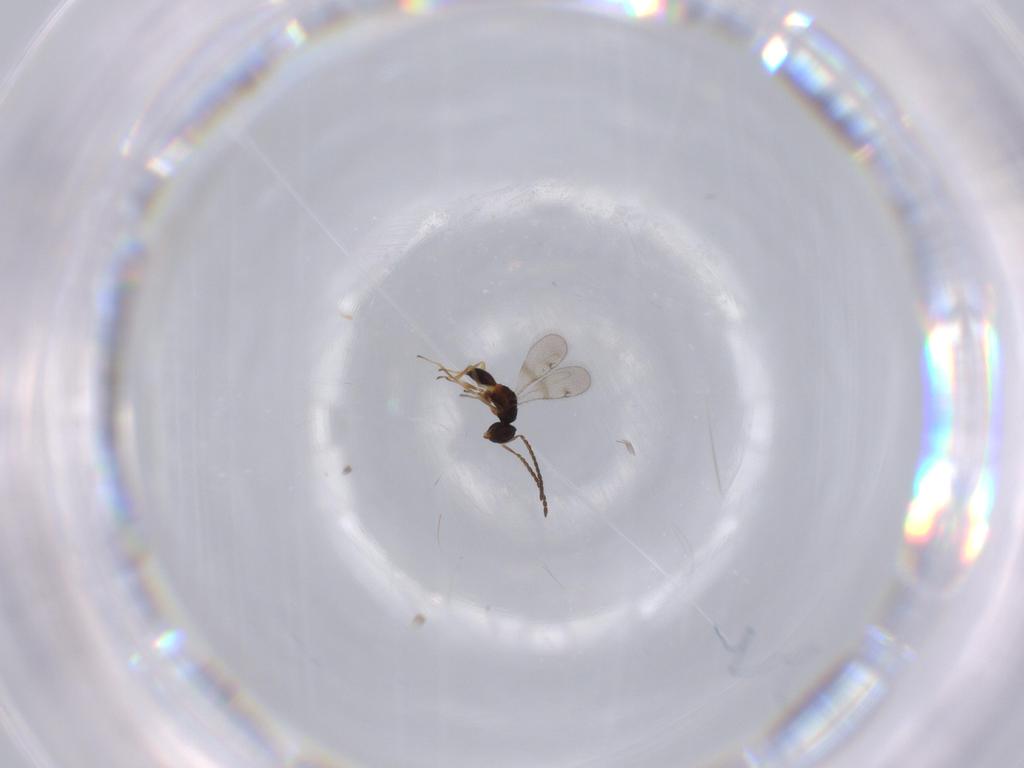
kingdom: Animalia
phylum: Arthropoda
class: Insecta
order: Hymenoptera
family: Diparidae
